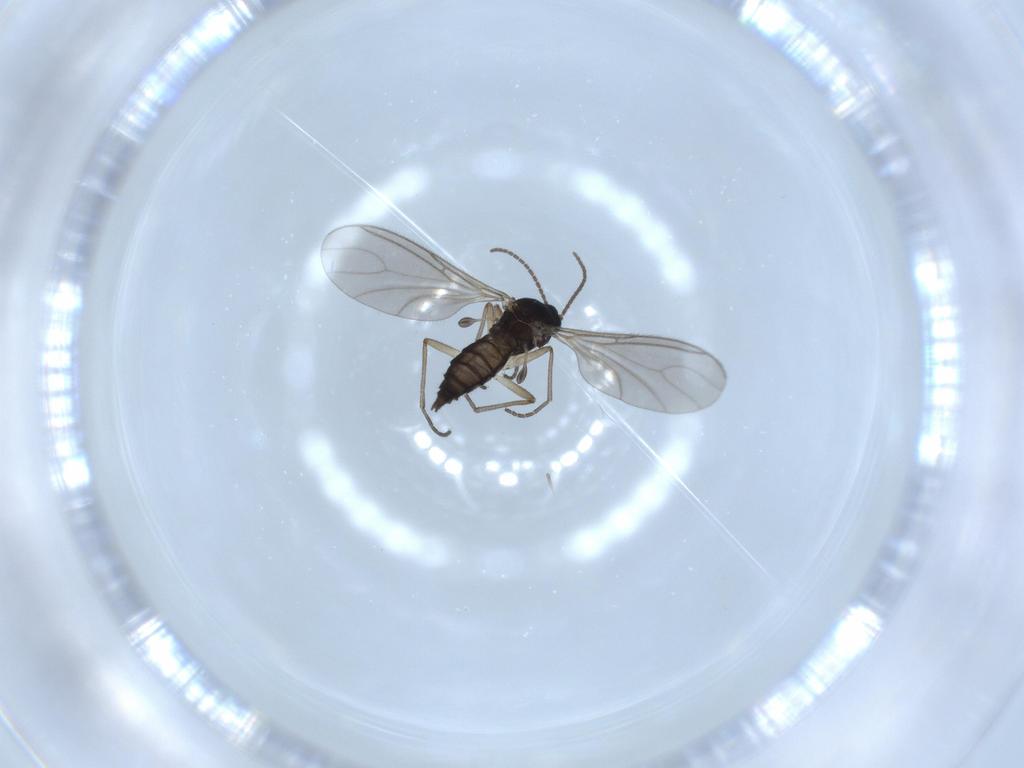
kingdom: Animalia
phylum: Arthropoda
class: Insecta
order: Diptera
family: Sciaridae
